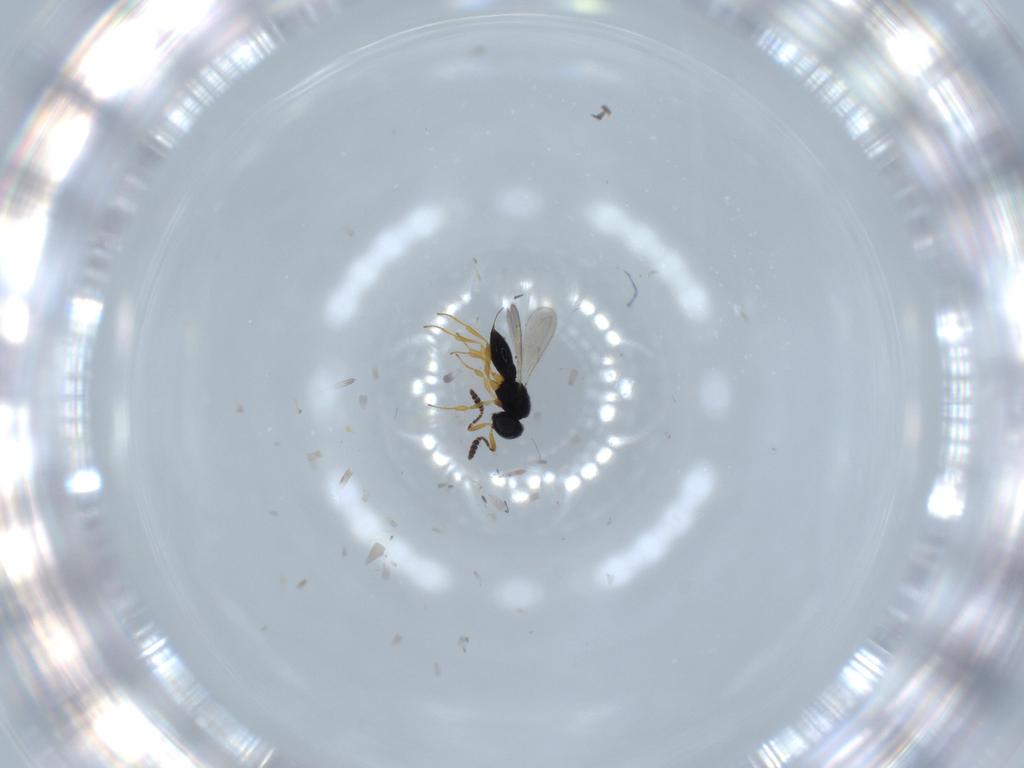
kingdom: Animalia
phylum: Arthropoda
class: Insecta
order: Hymenoptera
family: Scelionidae
